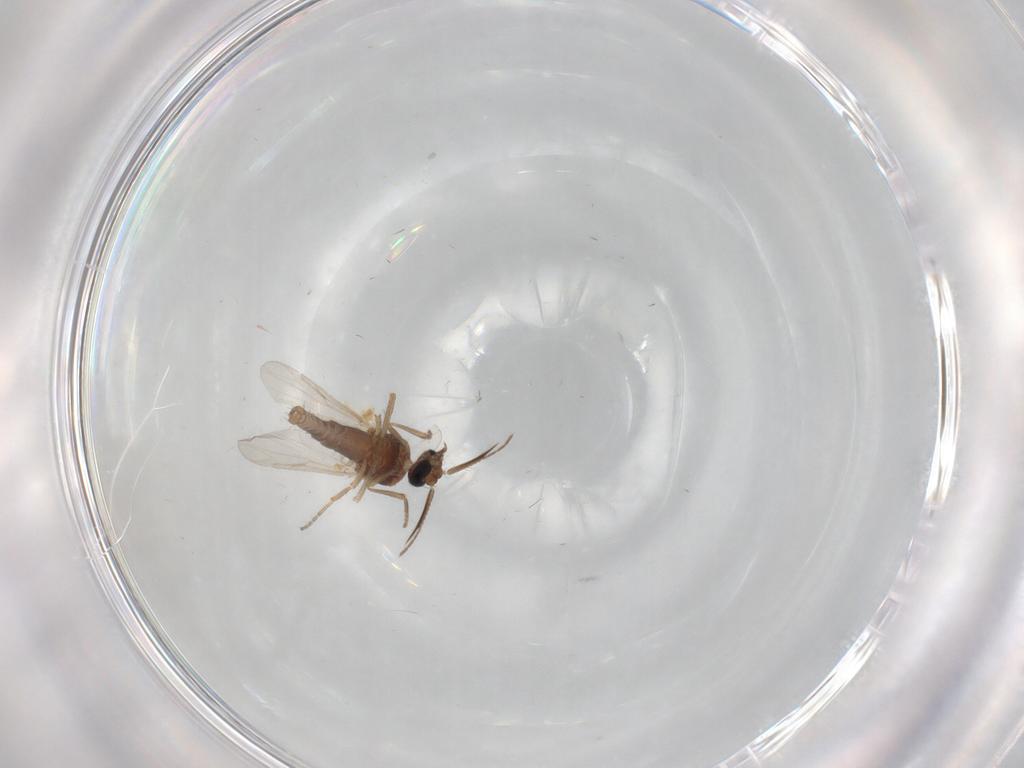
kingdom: Animalia
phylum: Arthropoda
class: Insecta
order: Diptera
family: Ceratopogonidae
